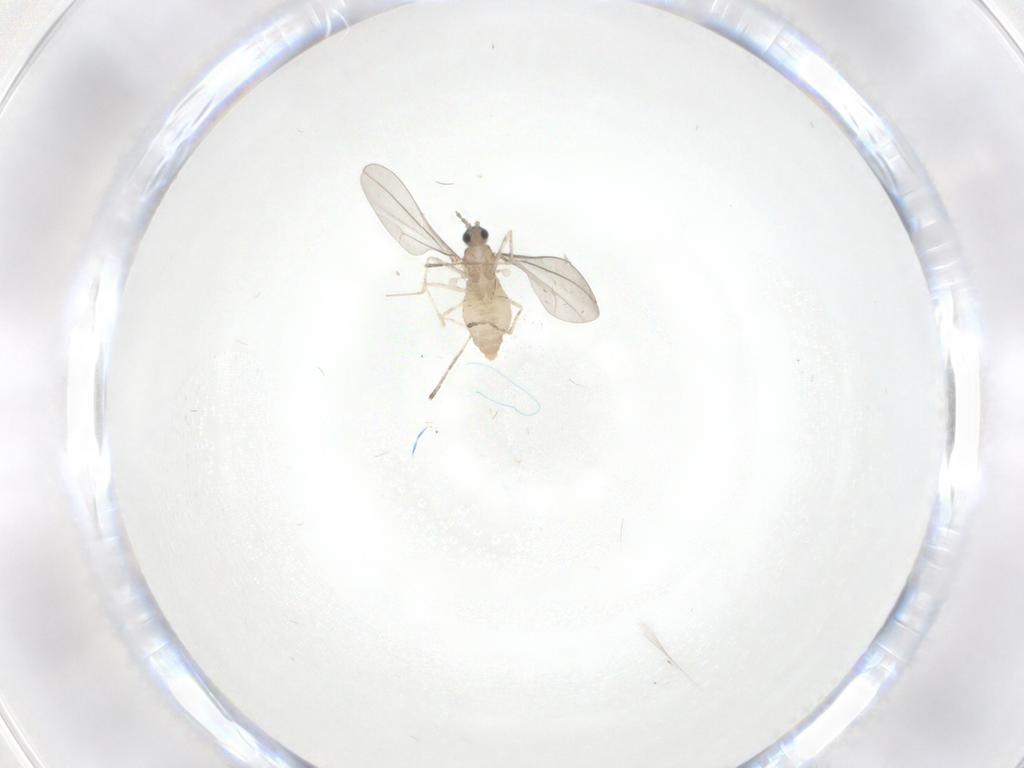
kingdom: Animalia
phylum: Arthropoda
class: Insecta
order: Diptera
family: Cecidomyiidae
